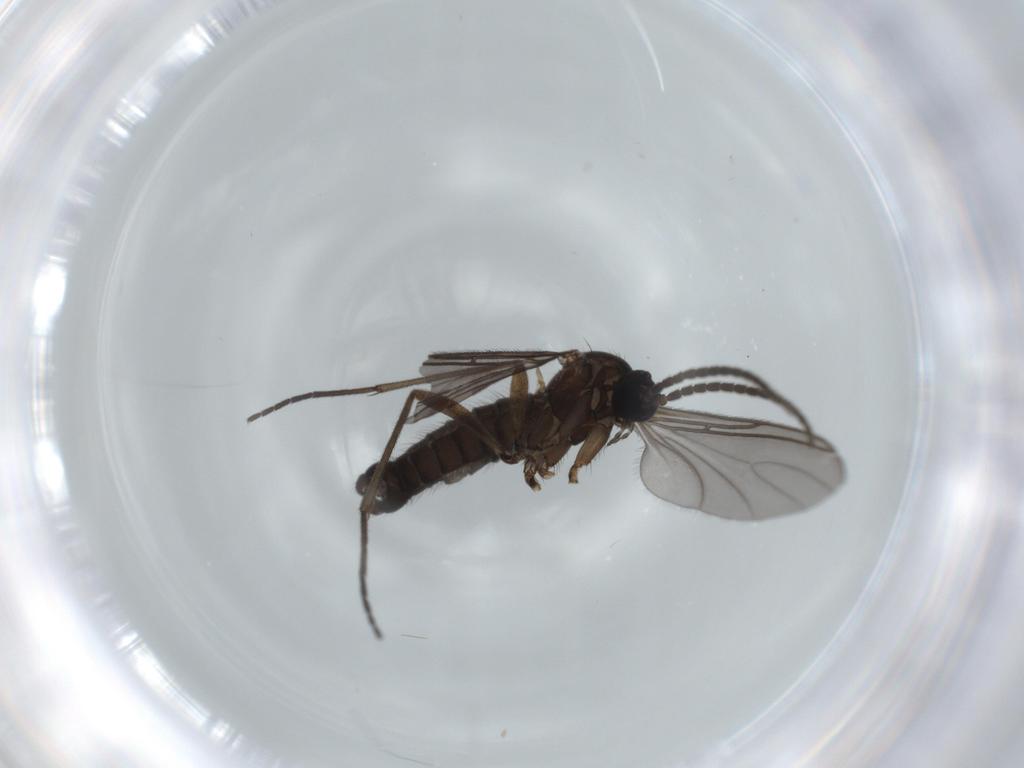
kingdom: Animalia
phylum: Arthropoda
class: Insecta
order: Diptera
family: Sciaridae
